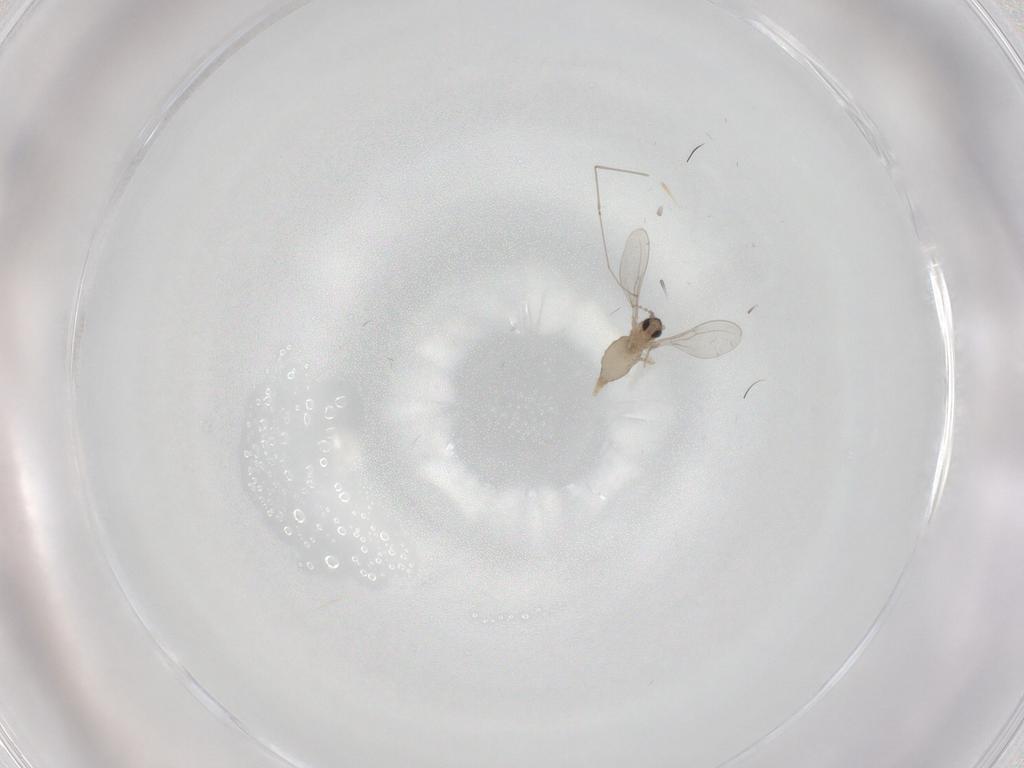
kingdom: Animalia
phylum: Arthropoda
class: Insecta
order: Diptera
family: Cecidomyiidae
